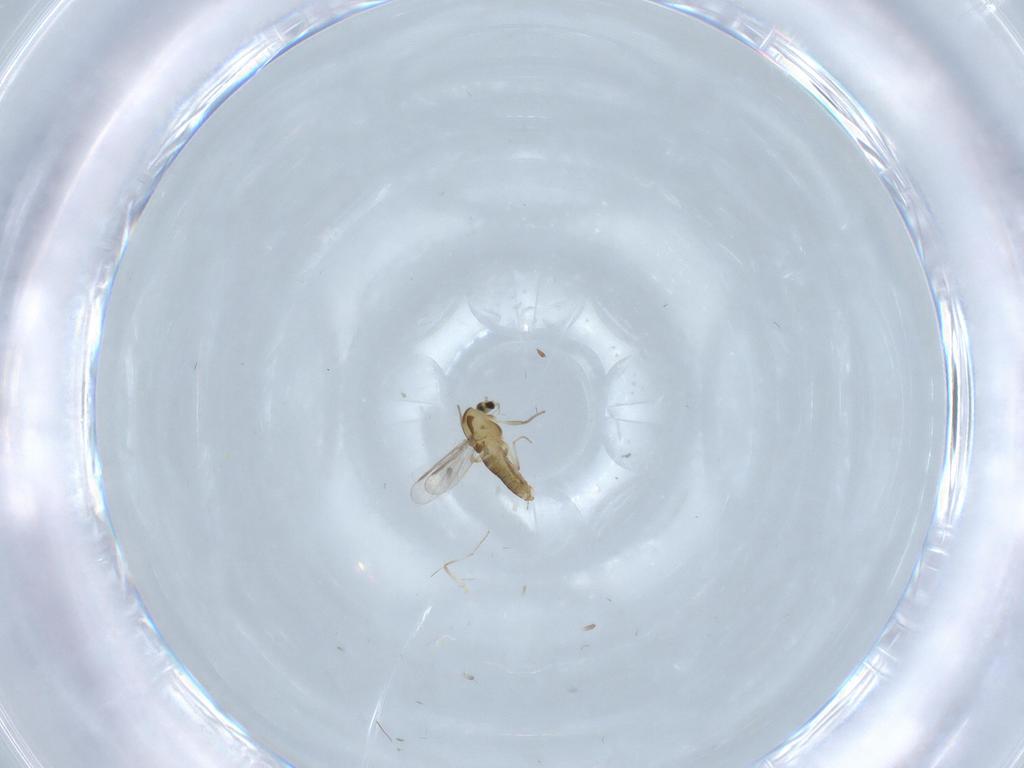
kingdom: Animalia
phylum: Arthropoda
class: Insecta
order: Diptera
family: Chironomidae
